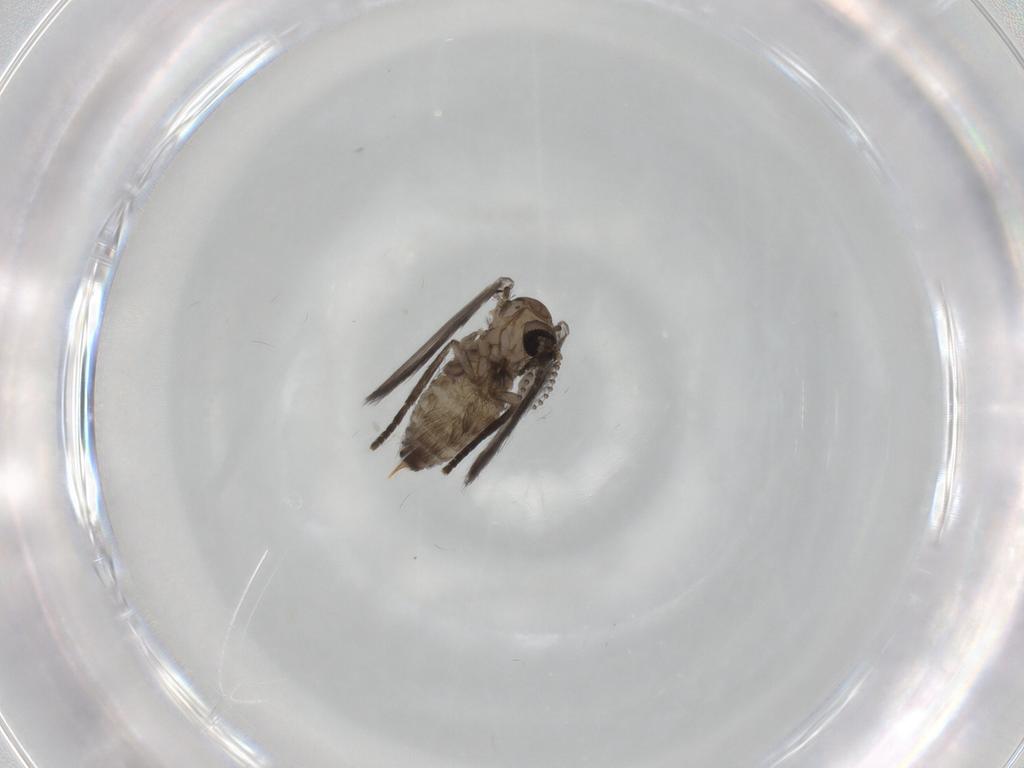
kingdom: Animalia
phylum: Arthropoda
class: Insecta
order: Diptera
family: Psychodidae
